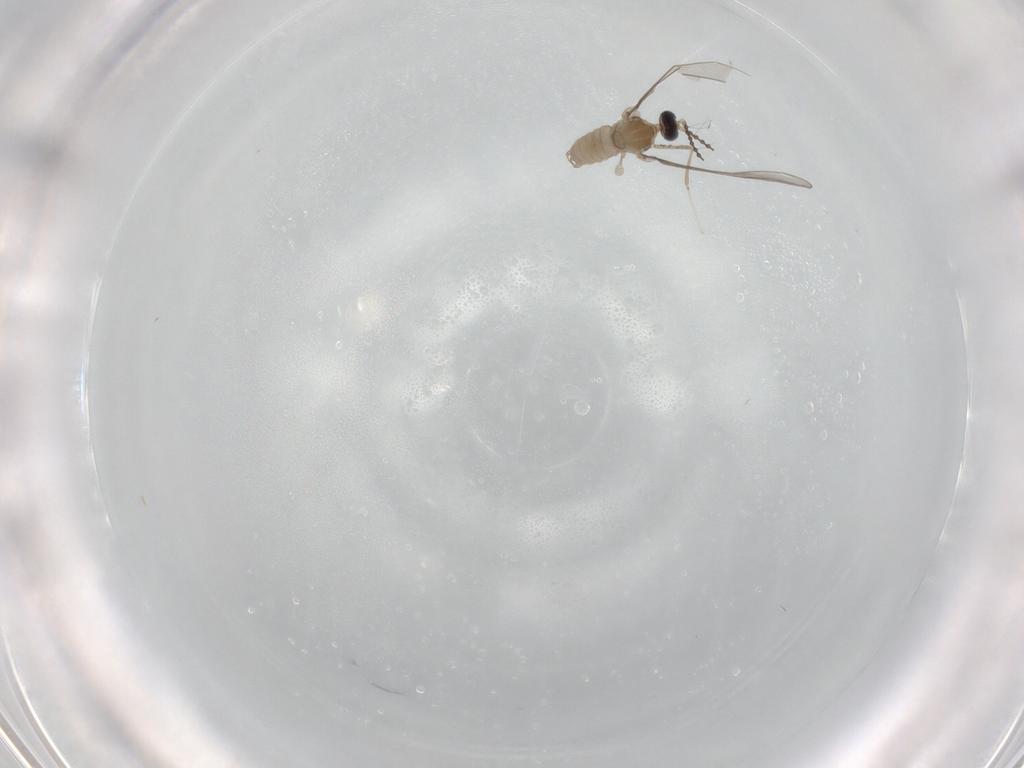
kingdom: Animalia
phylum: Arthropoda
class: Insecta
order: Diptera
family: Cecidomyiidae
